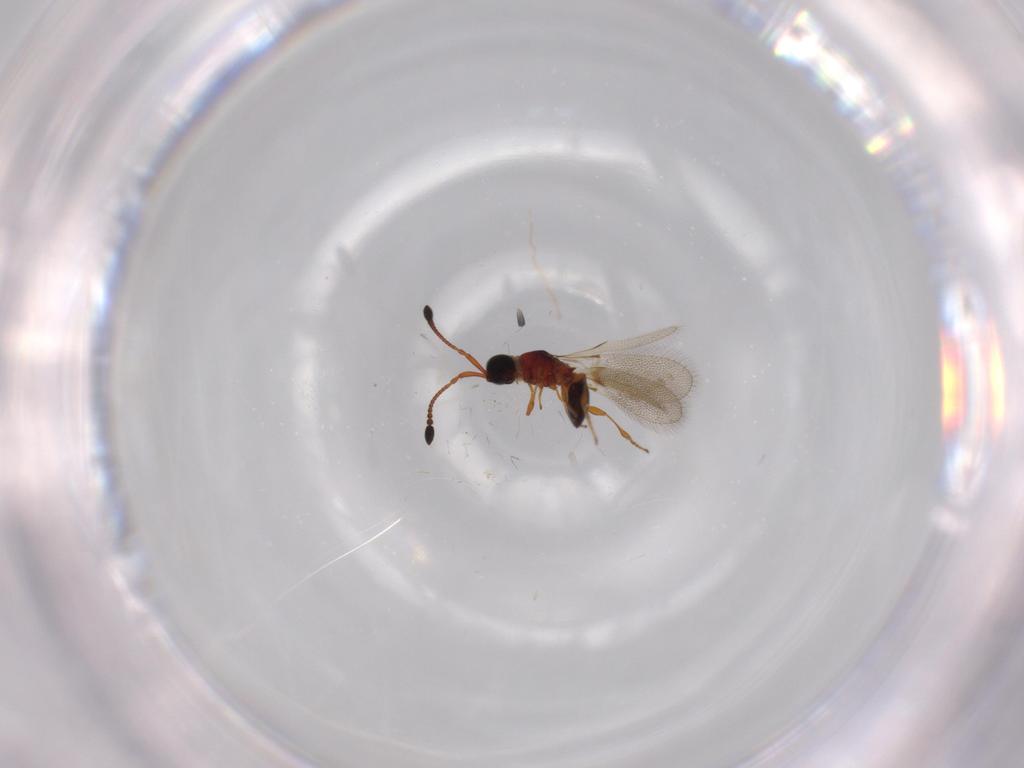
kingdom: Animalia
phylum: Arthropoda
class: Insecta
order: Hymenoptera
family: Diapriidae
